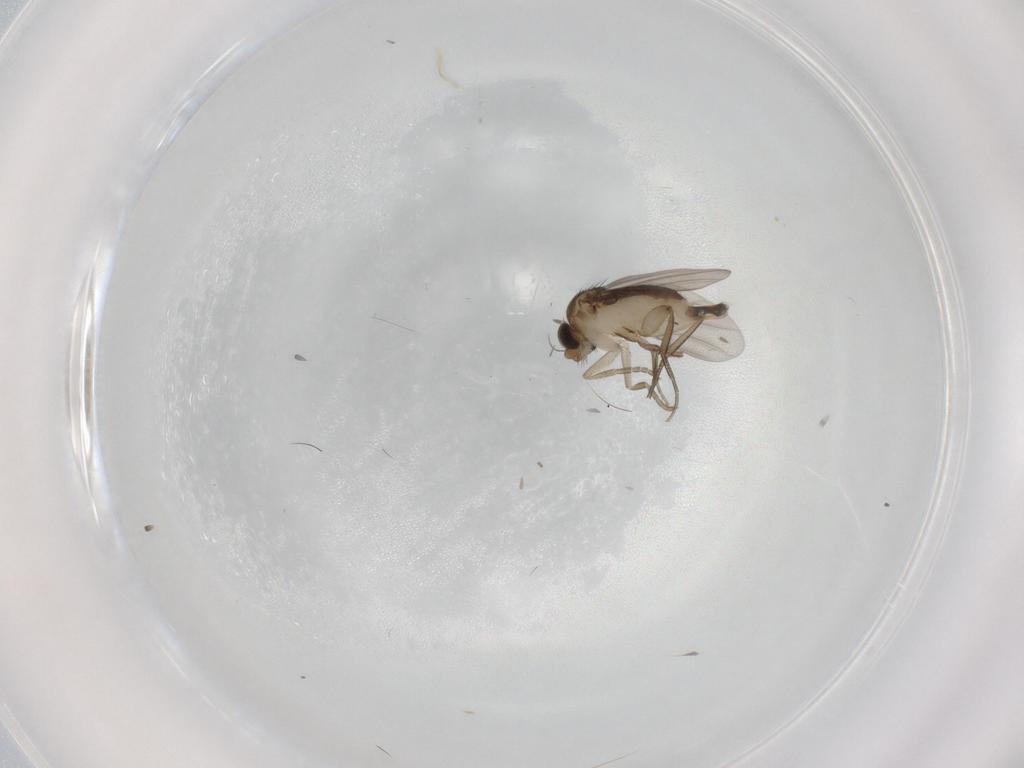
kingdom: Animalia
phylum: Arthropoda
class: Insecta
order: Diptera
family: Phoridae
